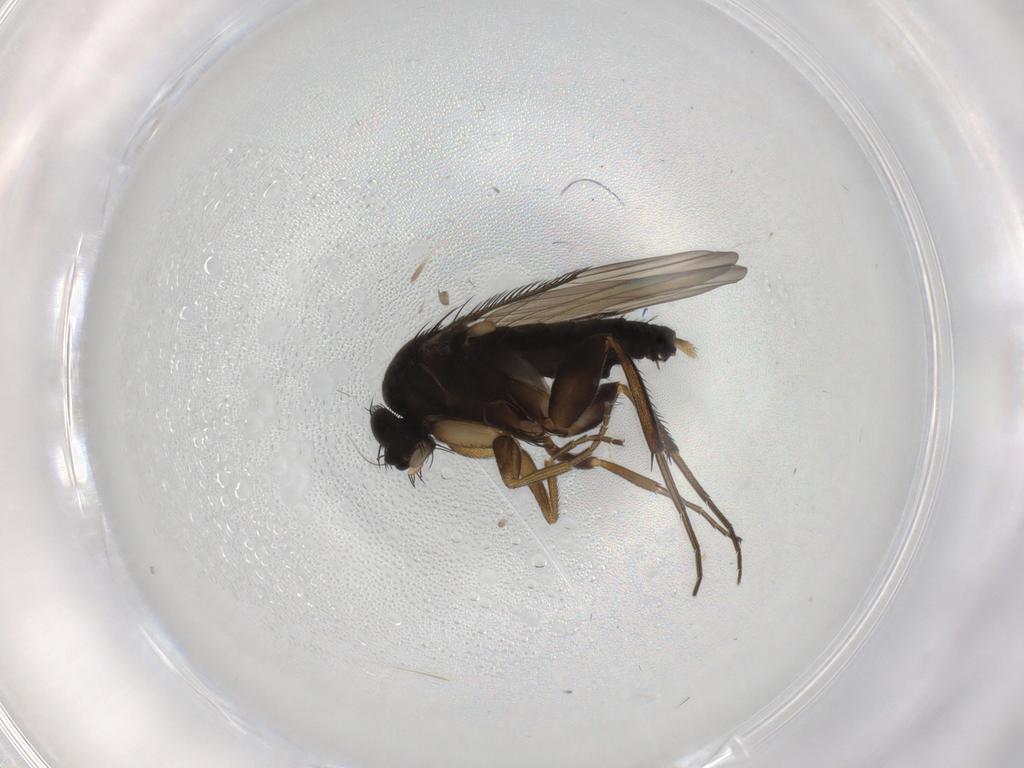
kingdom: Animalia
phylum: Arthropoda
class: Insecta
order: Diptera
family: Phoridae
